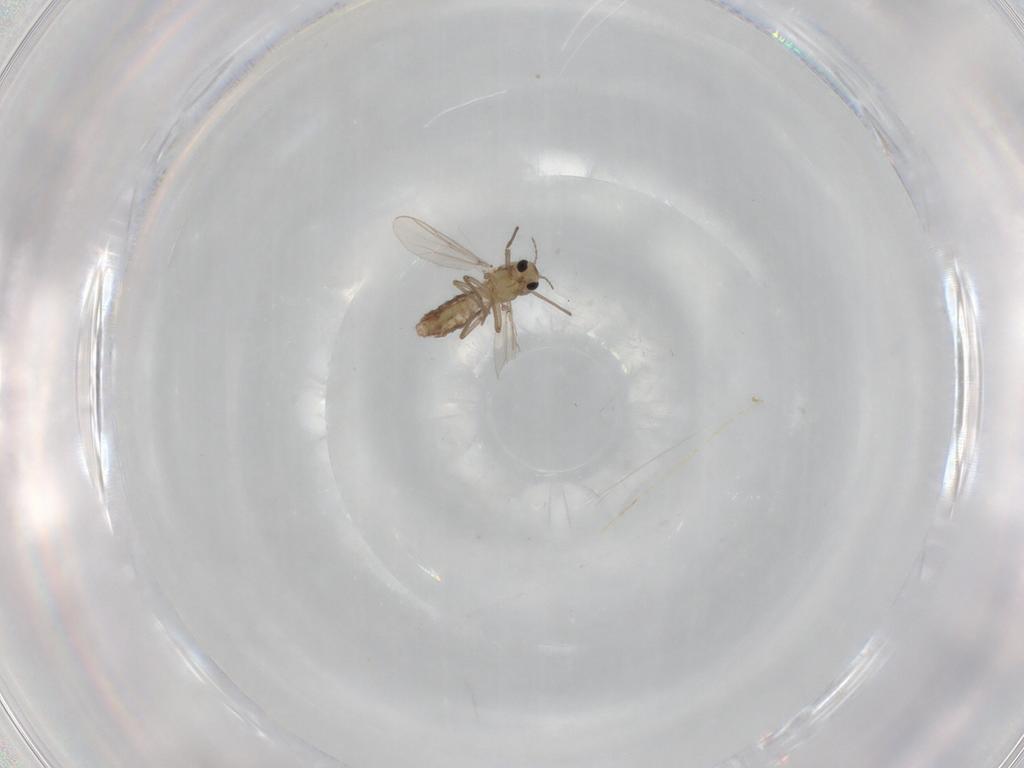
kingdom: Animalia
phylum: Arthropoda
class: Insecta
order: Diptera
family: Chironomidae
